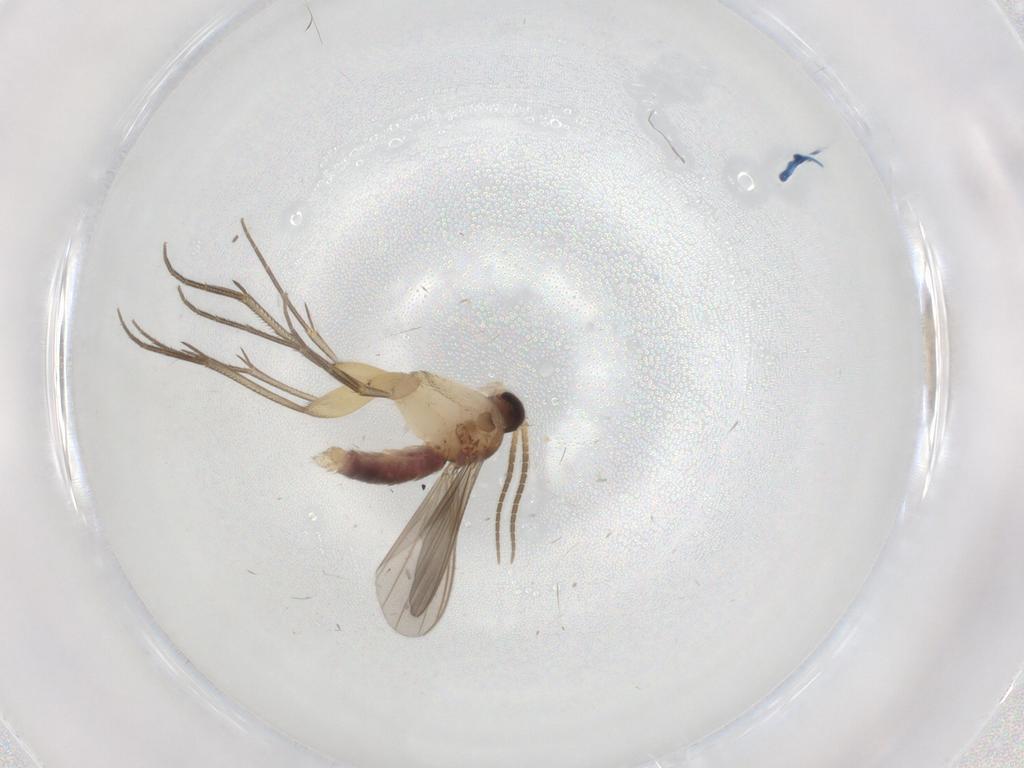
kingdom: Animalia
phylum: Arthropoda
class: Insecta
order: Diptera
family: Mycetophilidae
